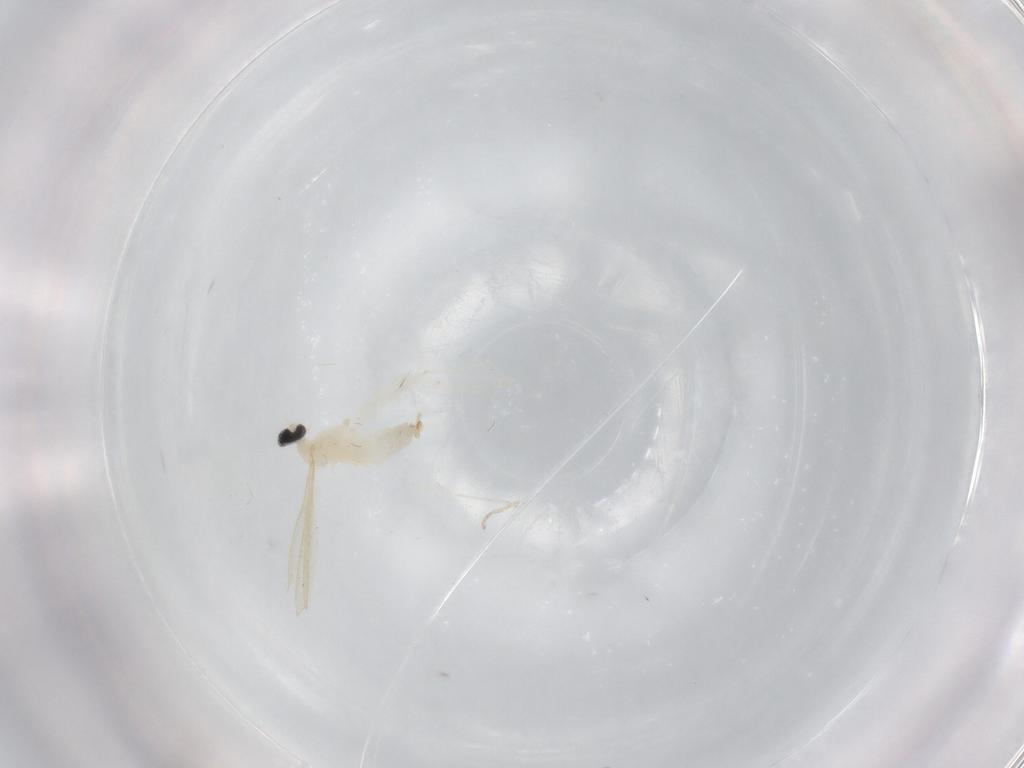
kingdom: Animalia
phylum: Arthropoda
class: Insecta
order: Diptera
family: Cecidomyiidae
